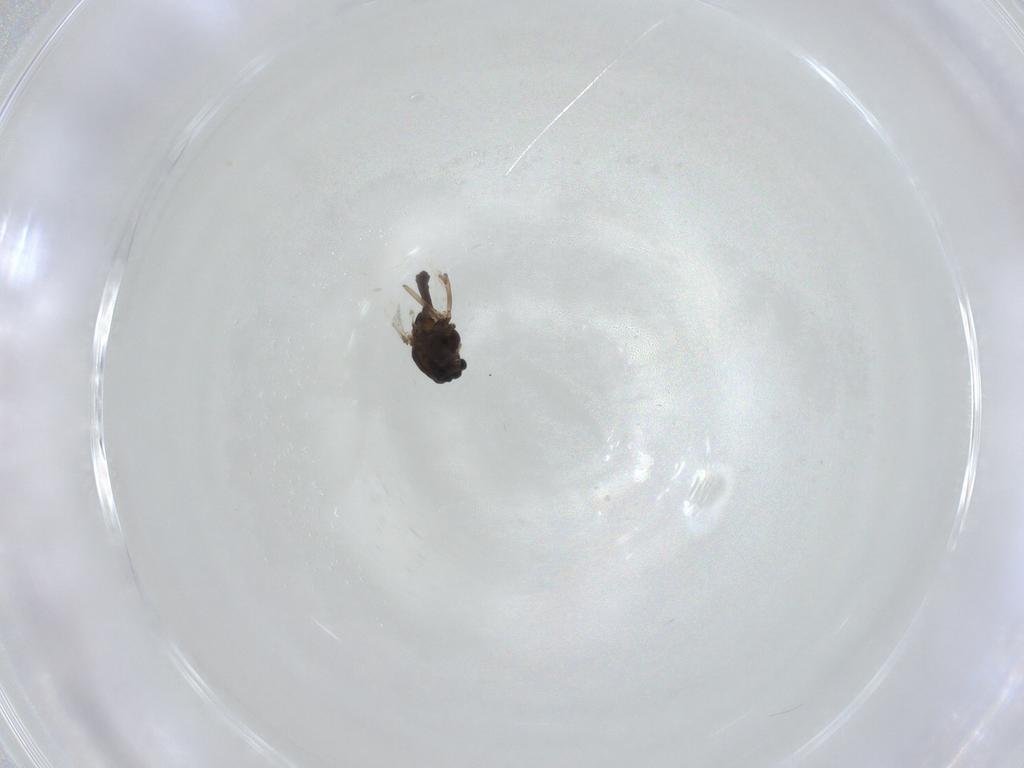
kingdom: Animalia
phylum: Arthropoda
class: Insecta
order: Diptera
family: Chironomidae
